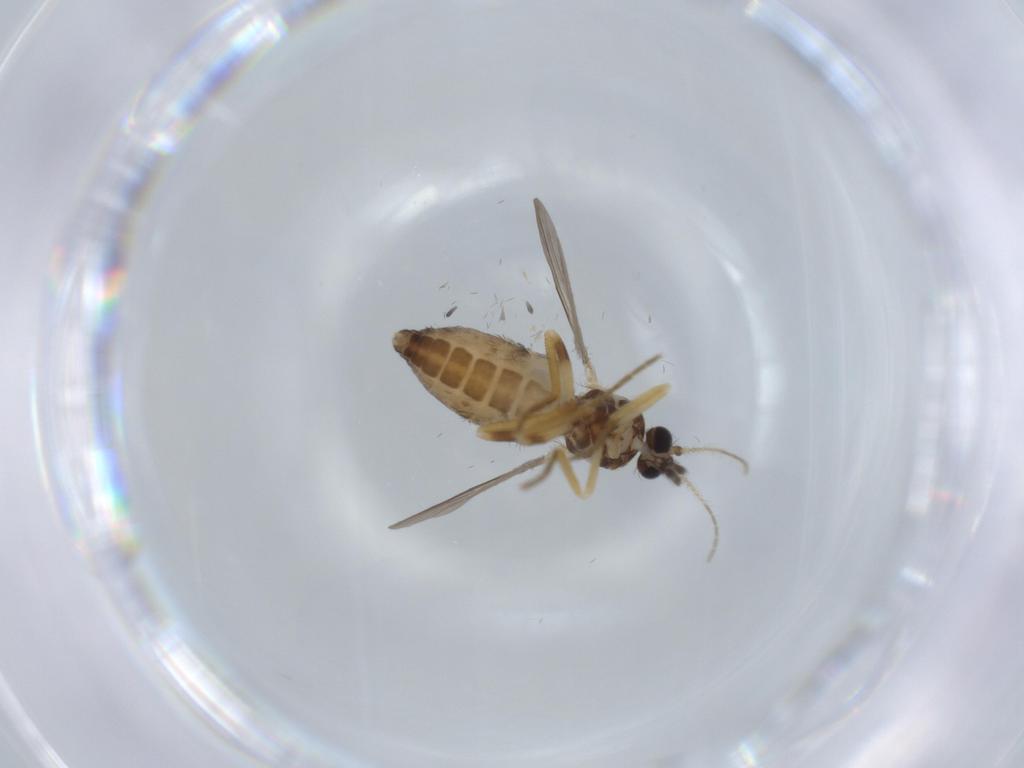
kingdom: Animalia
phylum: Arthropoda
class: Insecta
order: Diptera
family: Ceratopogonidae
